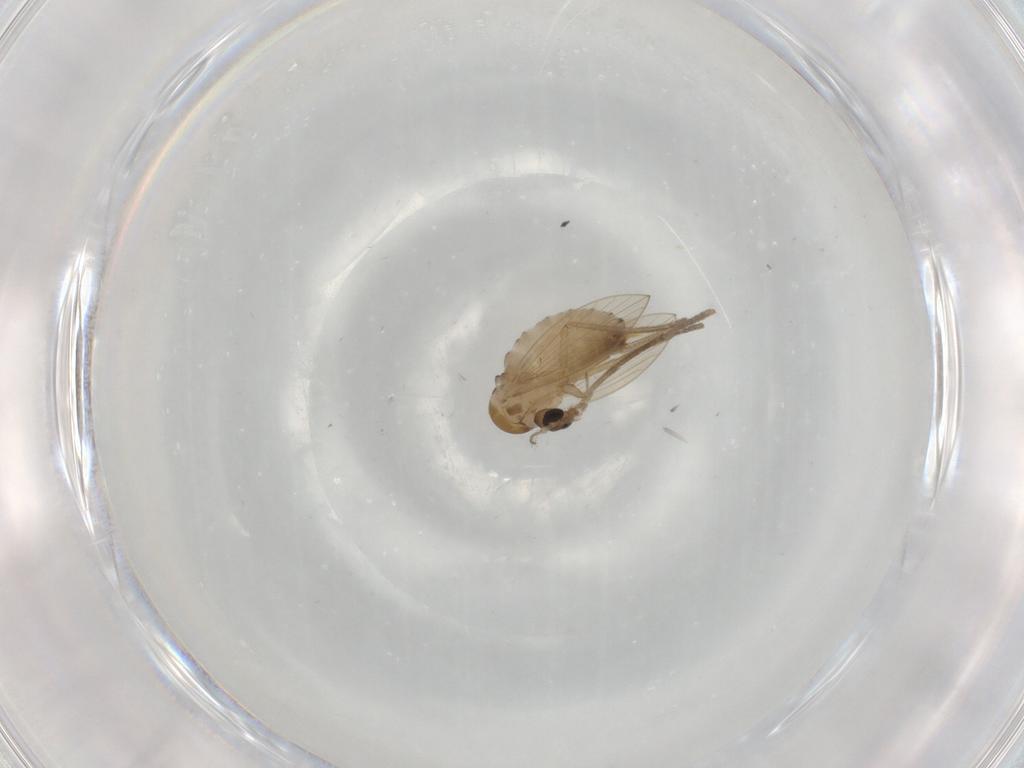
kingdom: Animalia
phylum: Arthropoda
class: Insecta
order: Diptera
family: Psychodidae
